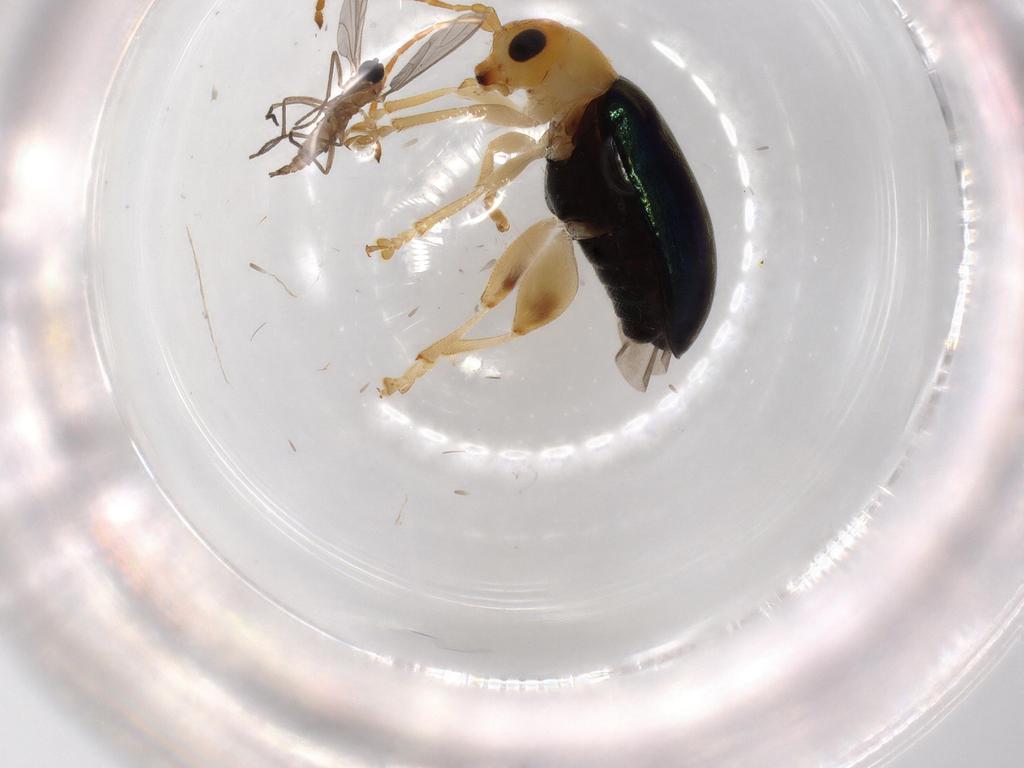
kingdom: Animalia
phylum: Arthropoda
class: Insecta
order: Coleoptera
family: Chrysomelidae
